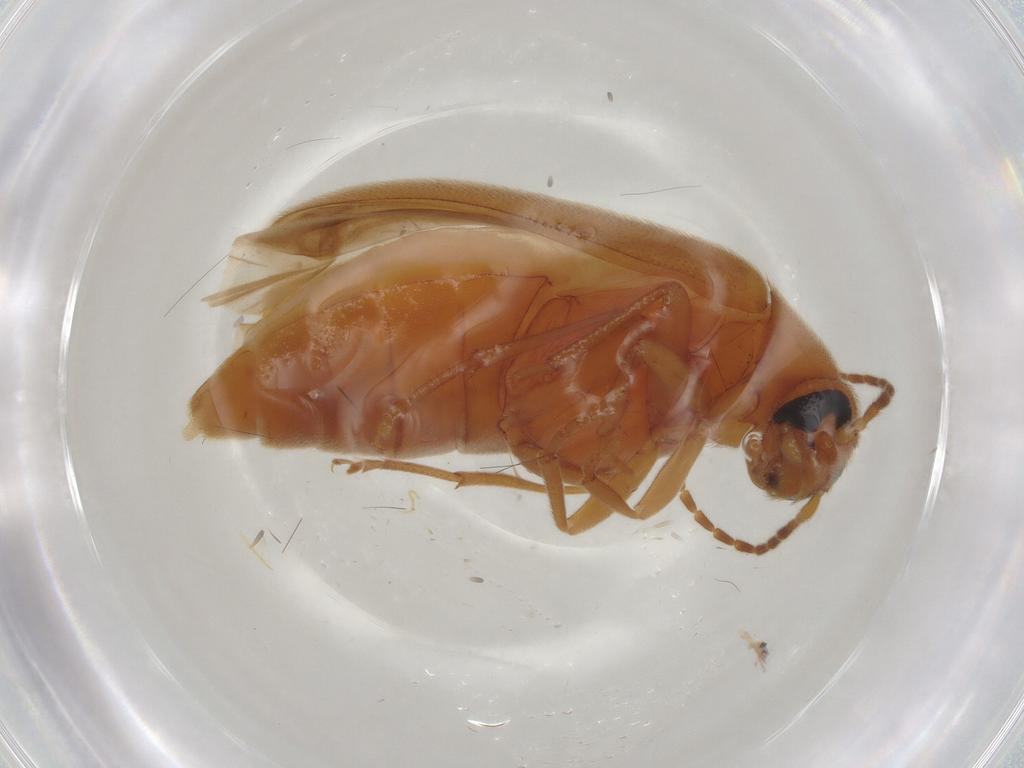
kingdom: Animalia
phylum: Arthropoda
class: Insecta
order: Coleoptera
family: Scraptiidae
